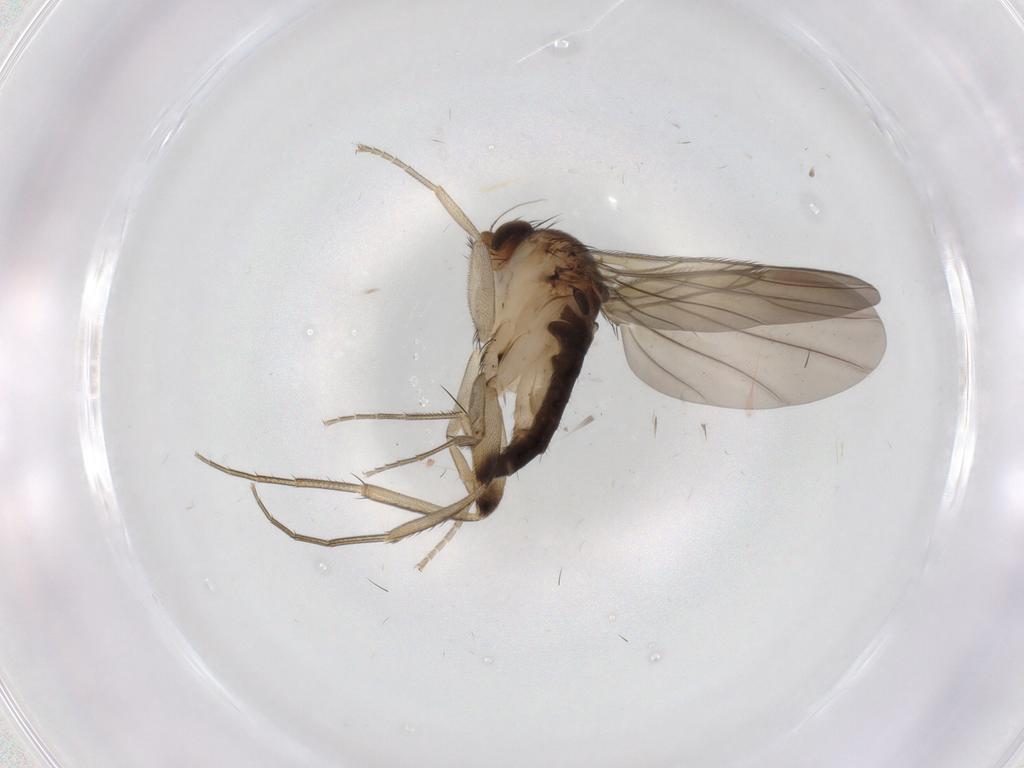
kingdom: Animalia
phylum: Arthropoda
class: Insecta
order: Diptera
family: Phoridae
